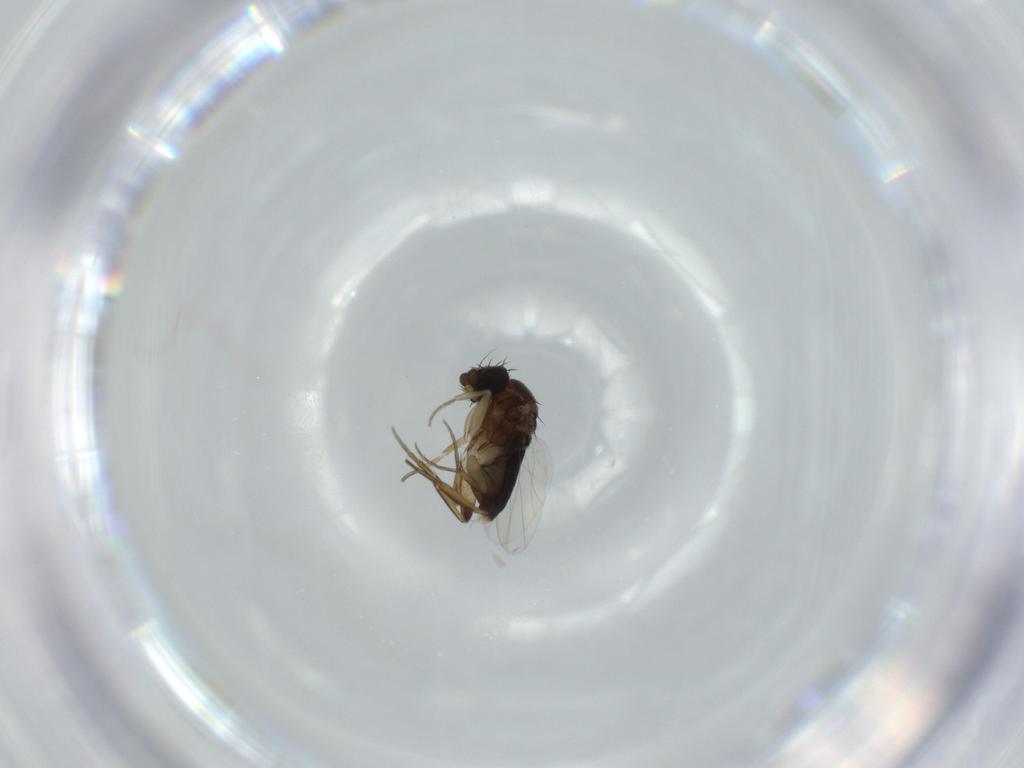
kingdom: Animalia
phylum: Arthropoda
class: Insecta
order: Diptera
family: Phoridae
